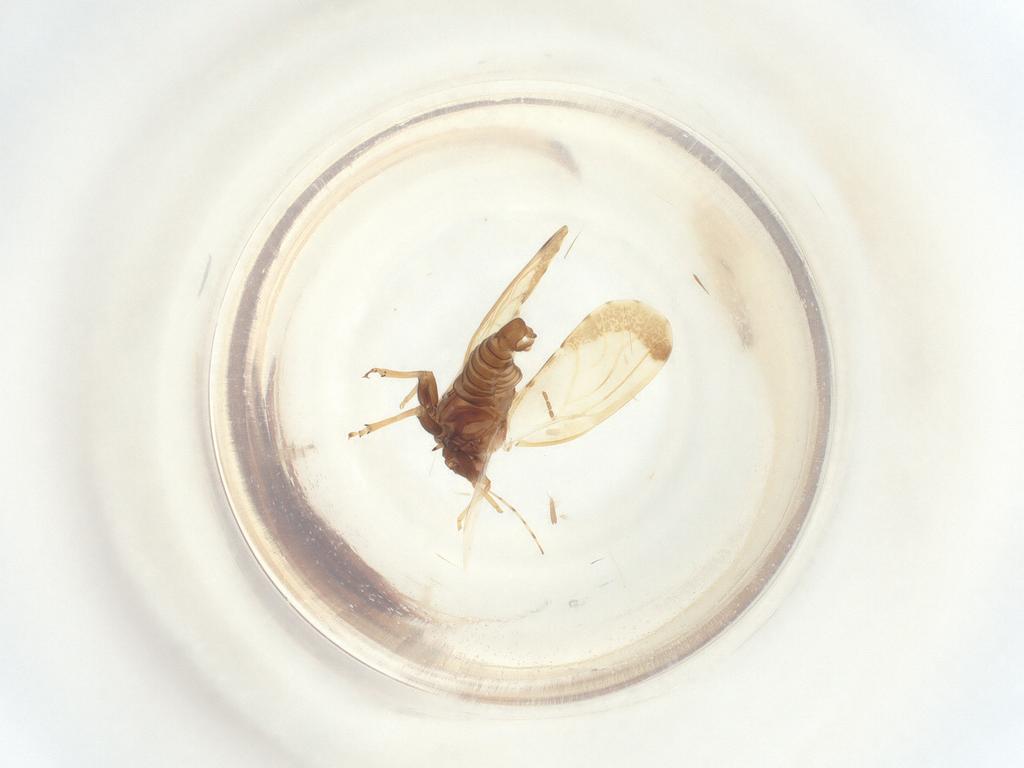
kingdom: Animalia
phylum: Arthropoda
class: Insecta
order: Hemiptera
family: Psyllidae
